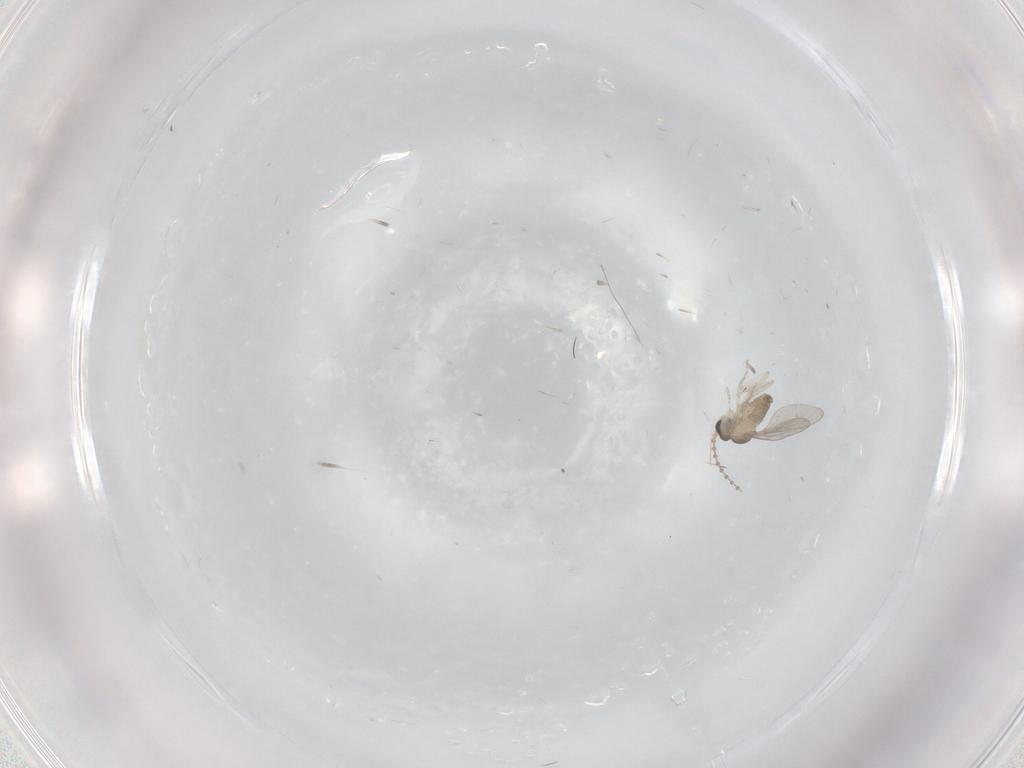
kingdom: Animalia
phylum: Arthropoda
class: Insecta
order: Diptera
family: Cecidomyiidae
